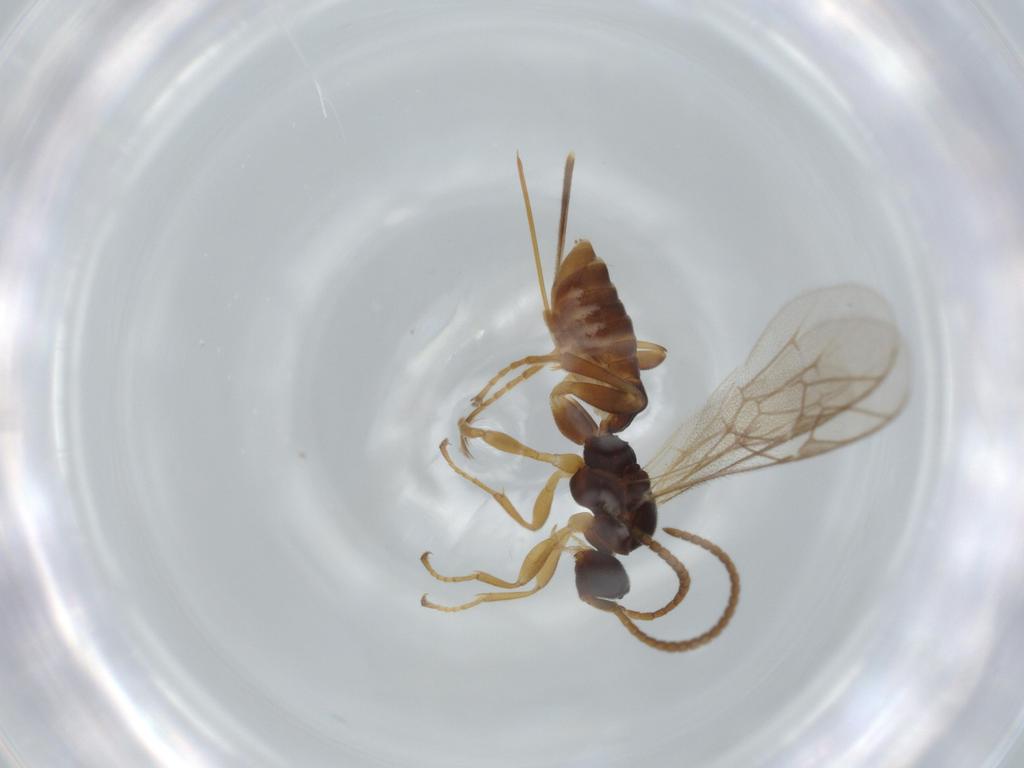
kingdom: Animalia
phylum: Arthropoda
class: Insecta
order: Hymenoptera
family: Ichneumonidae
